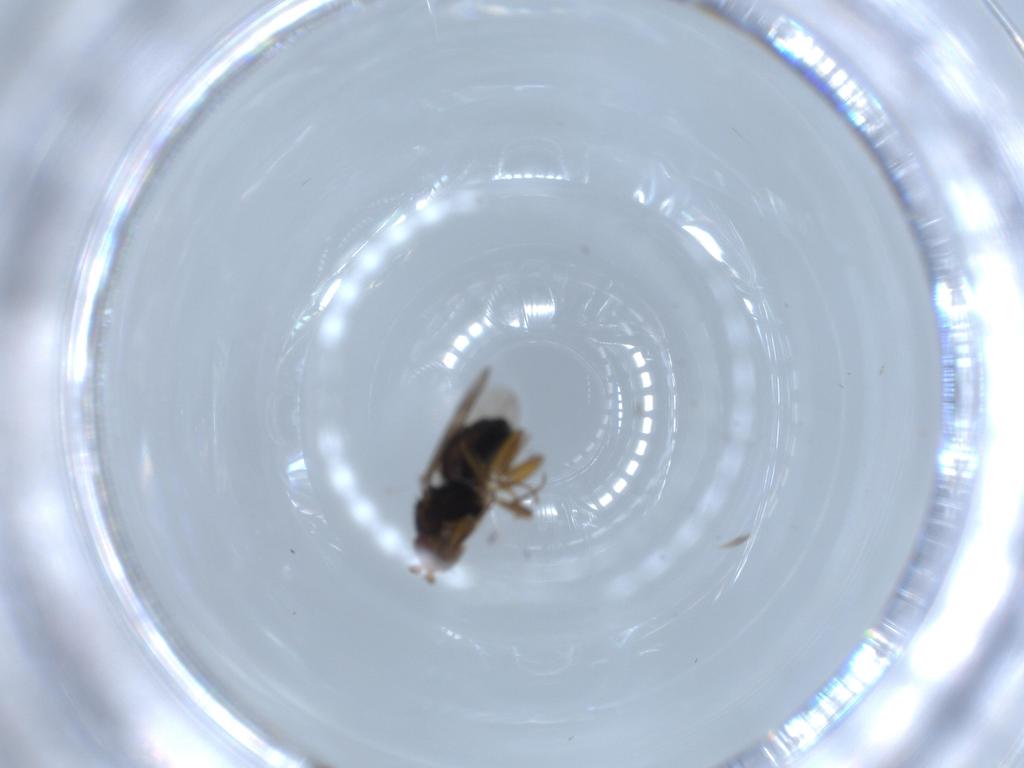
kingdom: Animalia
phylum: Arthropoda
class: Insecta
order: Diptera
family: Sphaeroceridae
